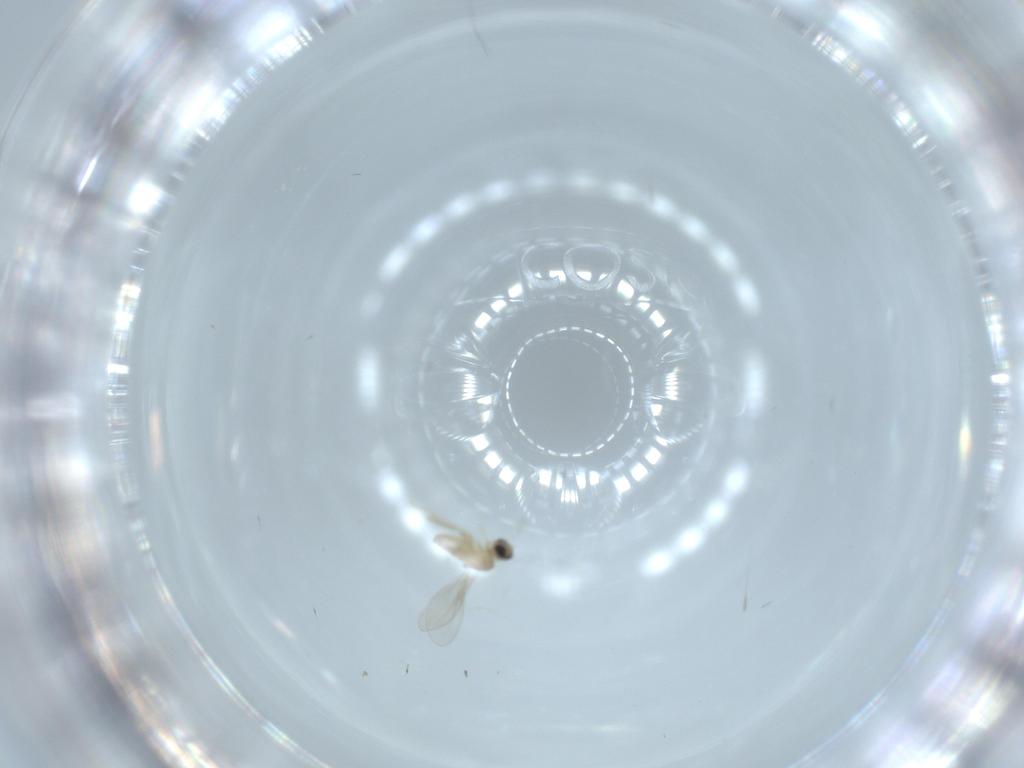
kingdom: Animalia
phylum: Arthropoda
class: Insecta
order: Diptera
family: Cecidomyiidae
